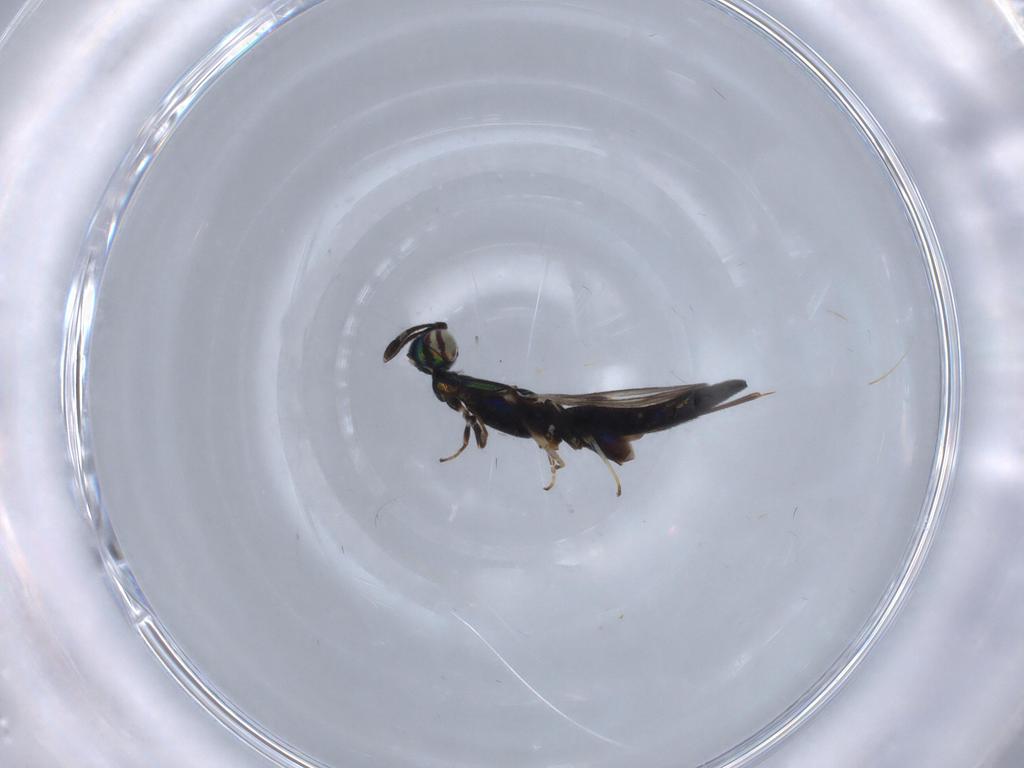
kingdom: Animalia
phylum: Arthropoda
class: Insecta
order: Hymenoptera
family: Eupelmidae
